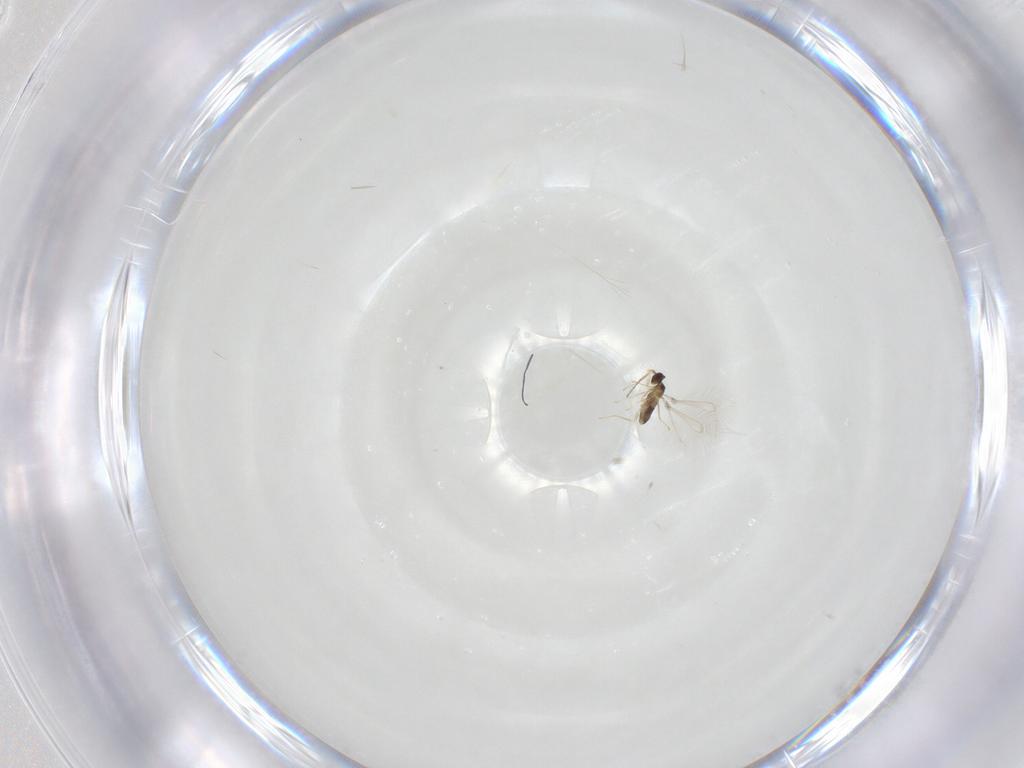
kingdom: Animalia
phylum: Arthropoda
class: Insecta
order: Hymenoptera
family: Mymaridae
